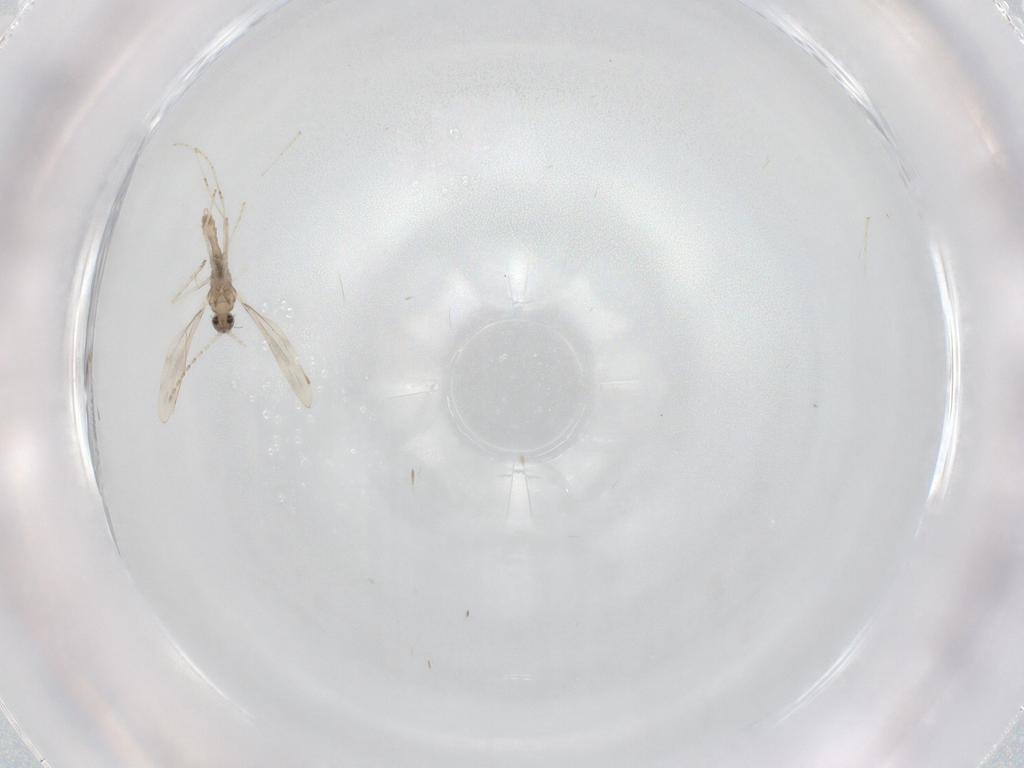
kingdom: Animalia
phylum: Arthropoda
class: Insecta
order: Diptera
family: Cecidomyiidae
